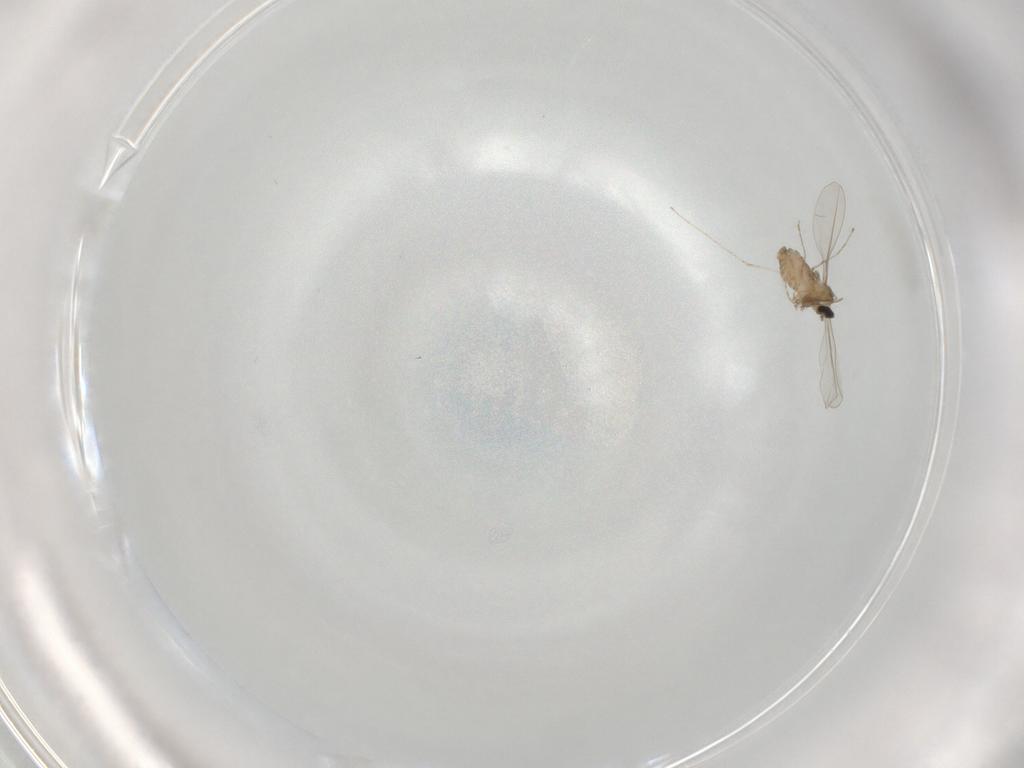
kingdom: Animalia
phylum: Arthropoda
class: Insecta
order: Diptera
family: Cecidomyiidae
